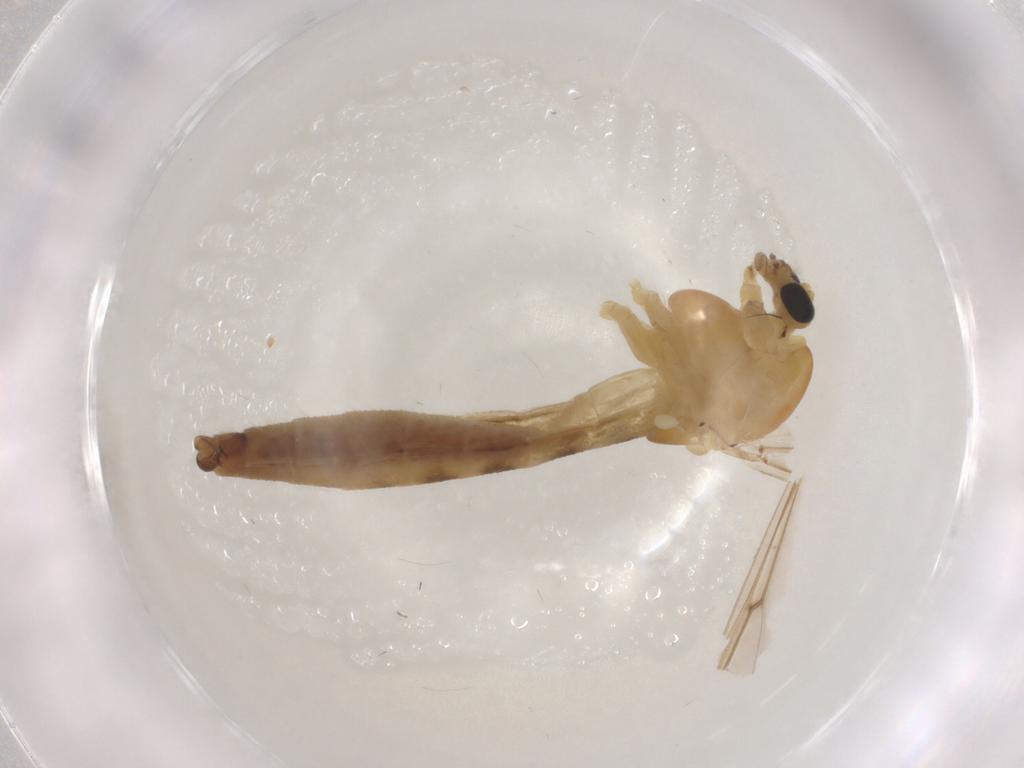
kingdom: Animalia
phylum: Arthropoda
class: Insecta
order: Diptera
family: Chironomidae
